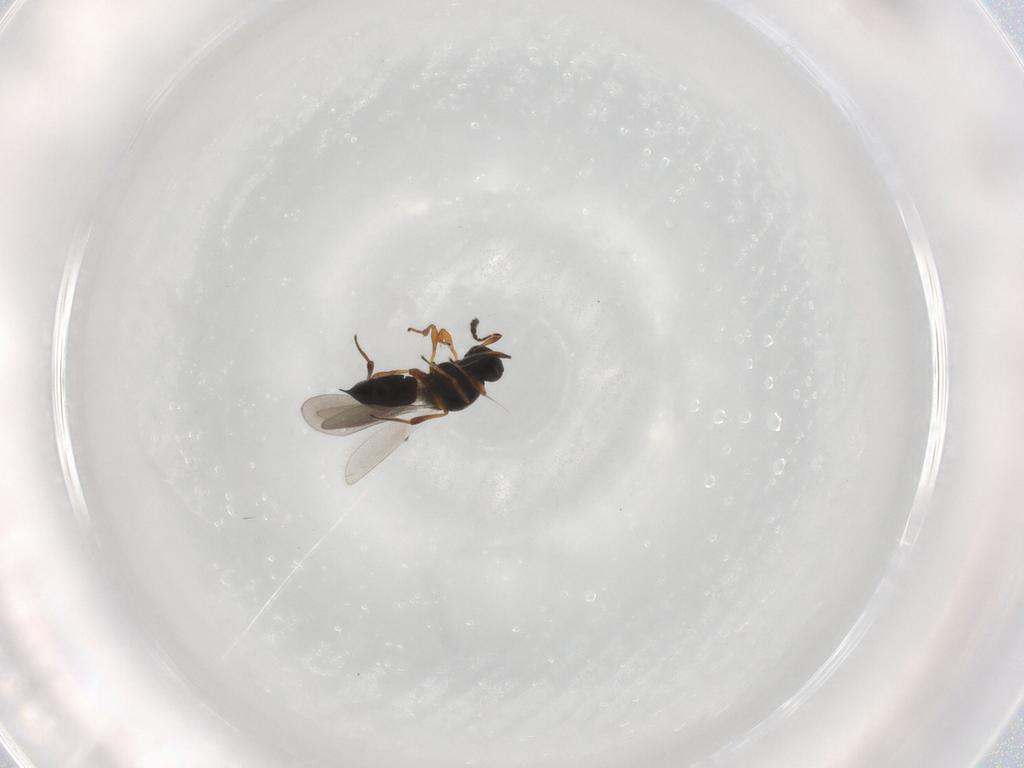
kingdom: Animalia
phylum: Arthropoda
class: Insecta
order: Hymenoptera
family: Platygastridae
